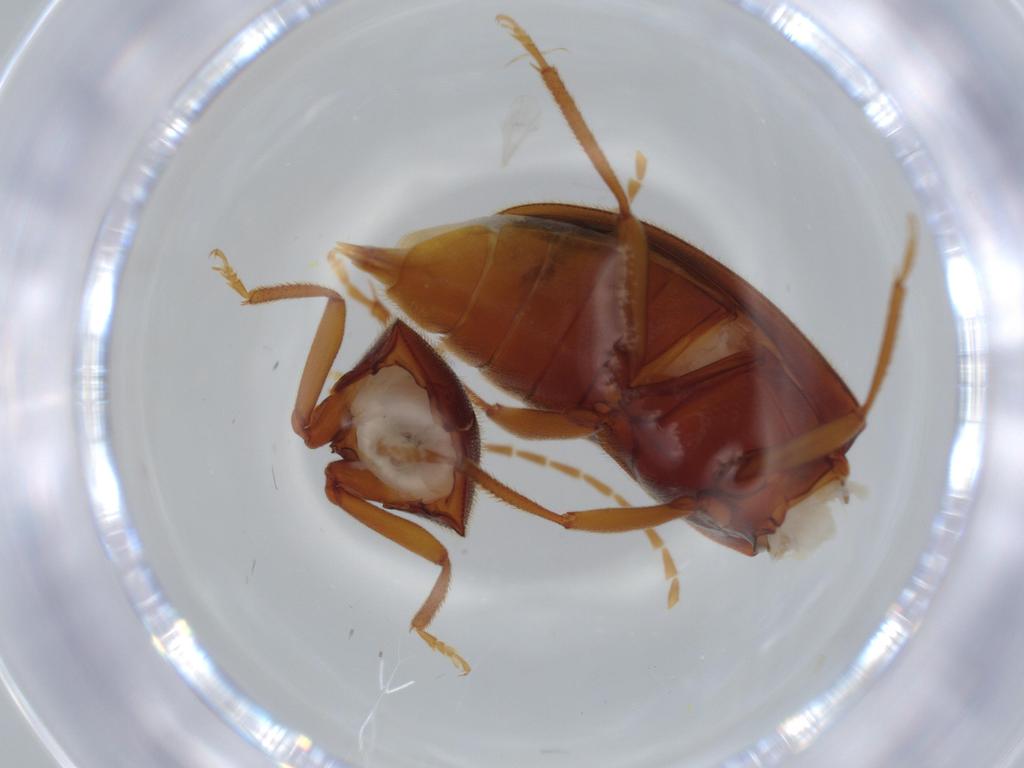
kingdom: Animalia
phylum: Arthropoda
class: Insecta
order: Coleoptera
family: Ptilodactylidae
